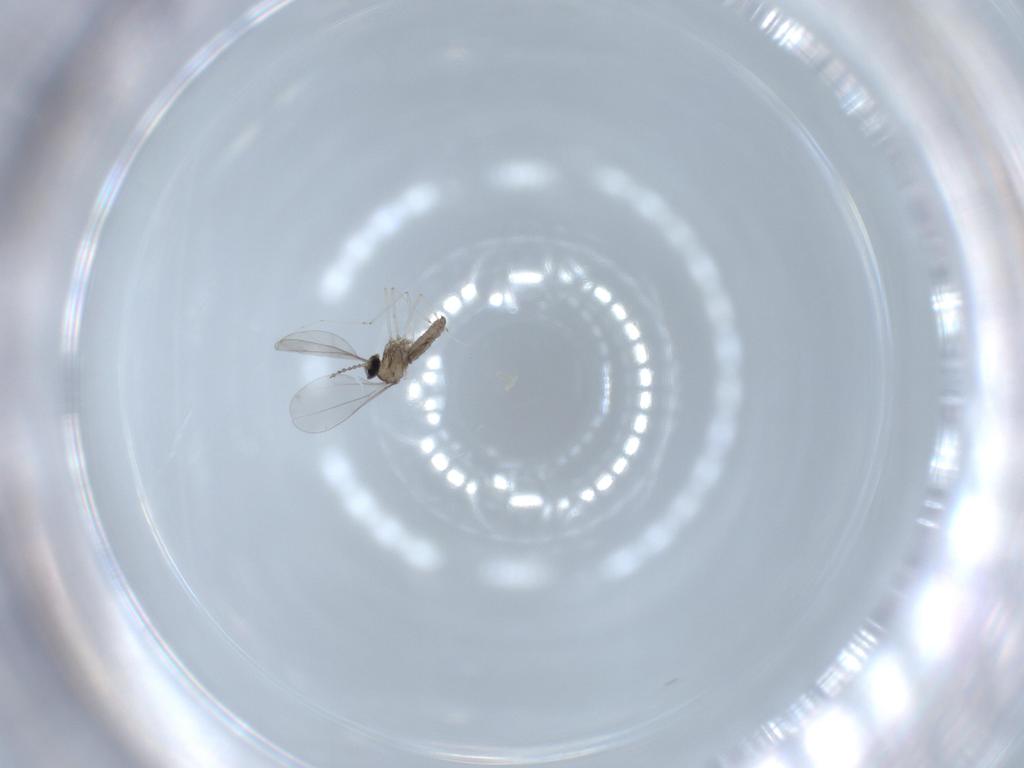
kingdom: Animalia
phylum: Arthropoda
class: Insecta
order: Diptera
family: Cecidomyiidae
